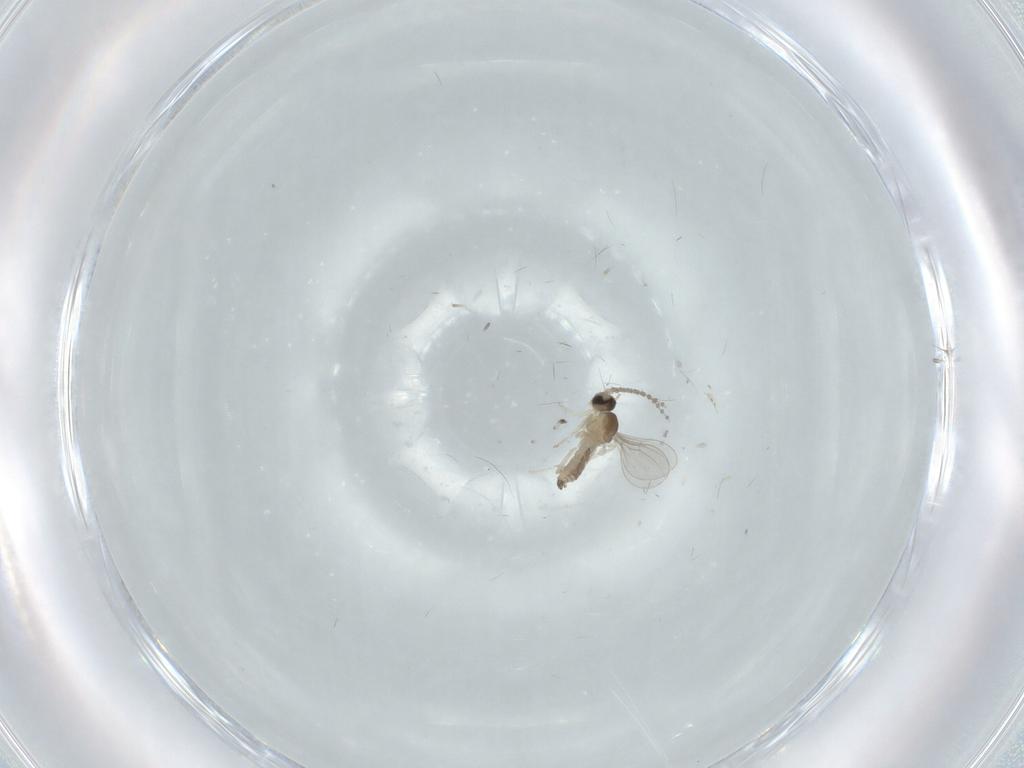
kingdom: Animalia
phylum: Arthropoda
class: Insecta
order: Diptera
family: Cecidomyiidae
